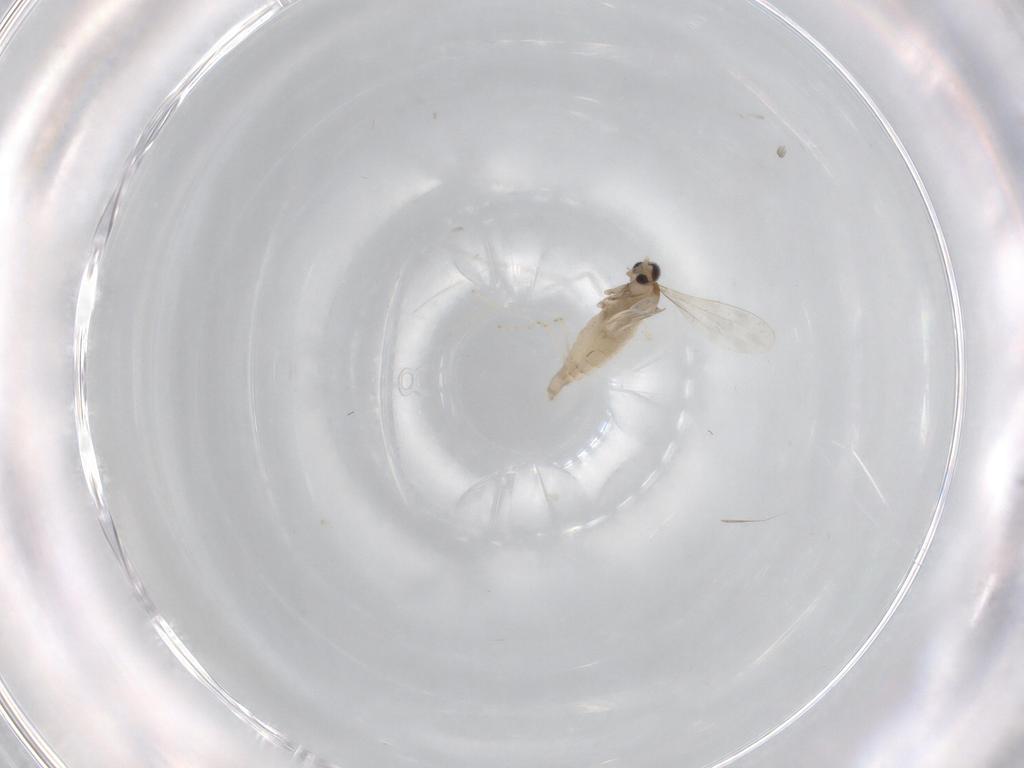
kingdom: Animalia
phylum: Arthropoda
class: Insecta
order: Diptera
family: Cecidomyiidae
